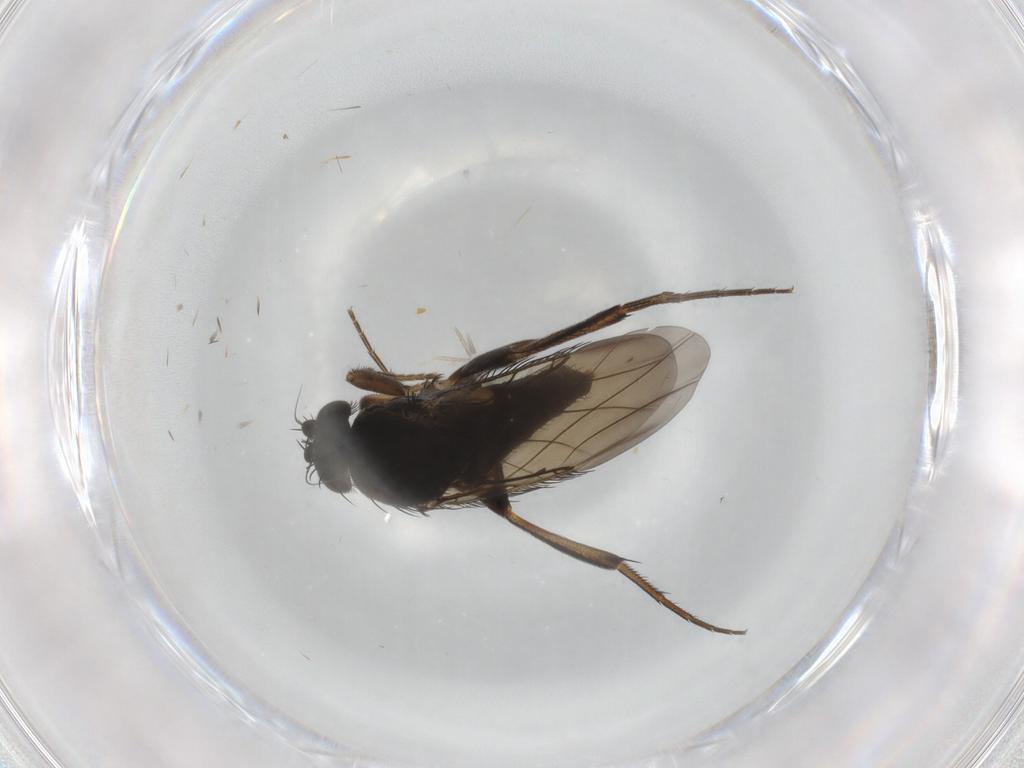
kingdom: Animalia
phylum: Arthropoda
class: Insecta
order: Diptera
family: Phoridae
